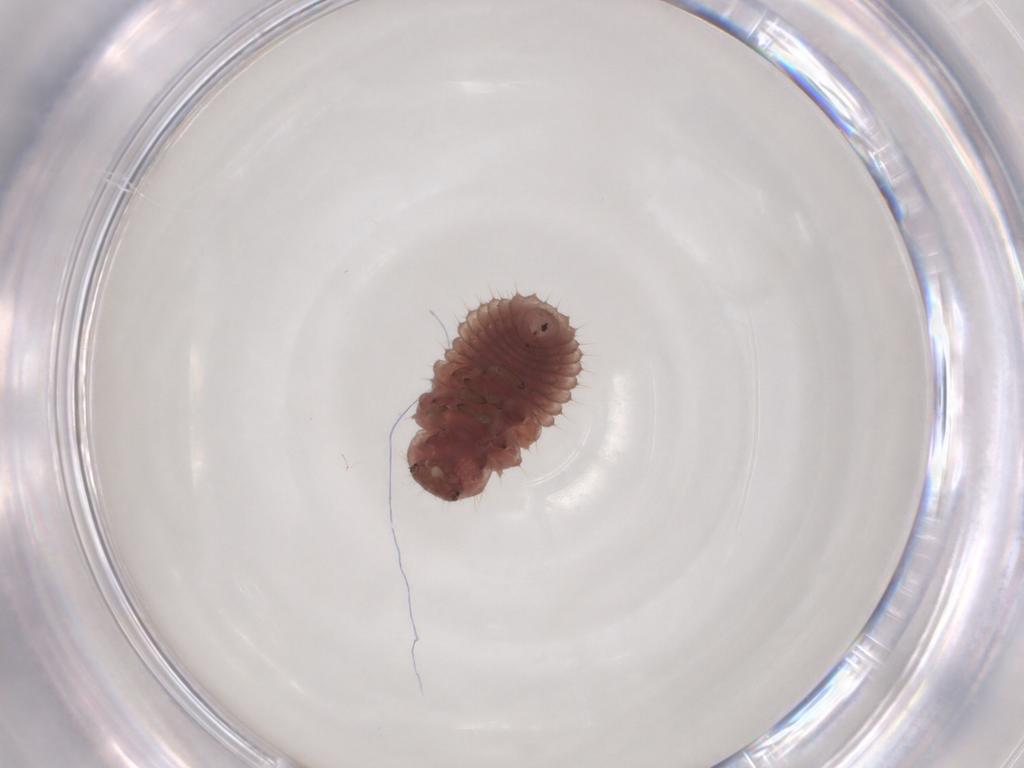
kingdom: Animalia
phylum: Arthropoda
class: Insecta
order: Coleoptera
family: Coccinellidae
